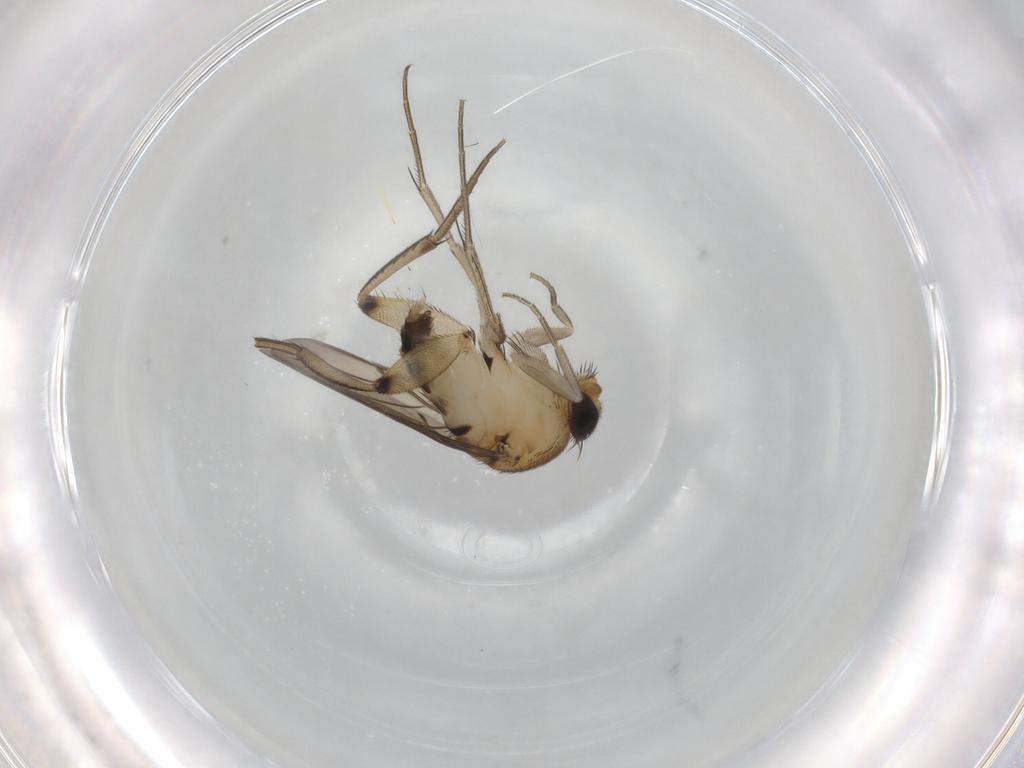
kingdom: Animalia
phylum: Arthropoda
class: Insecta
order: Diptera
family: Phoridae
